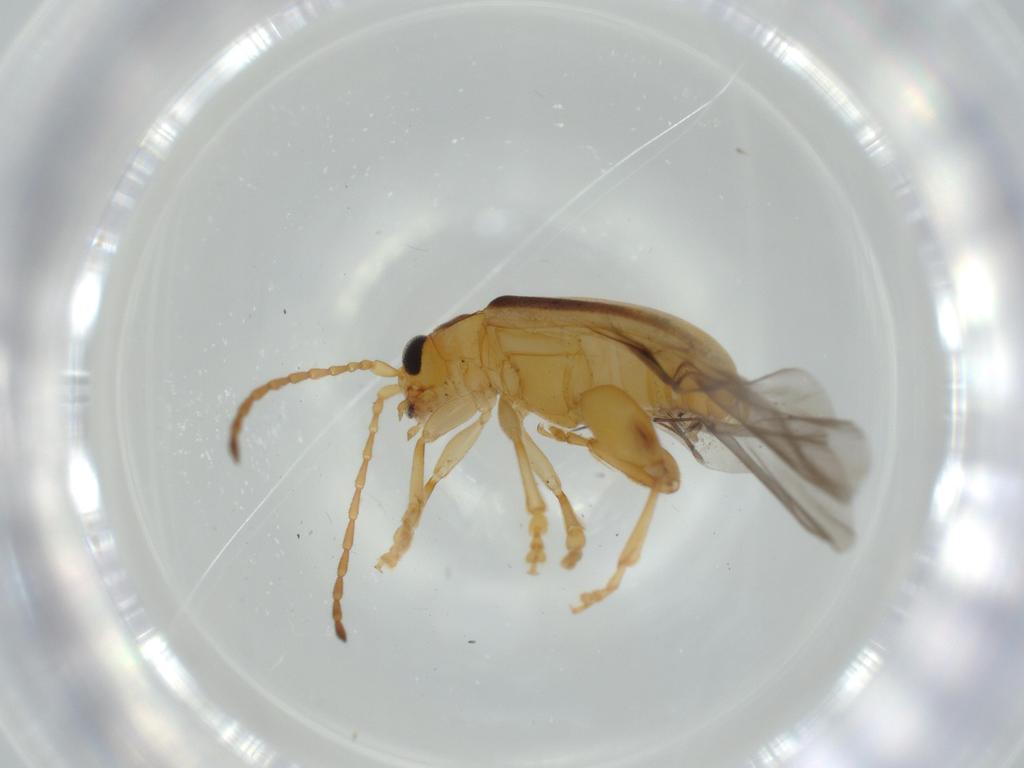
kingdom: Animalia
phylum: Arthropoda
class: Insecta
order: Coleoptera
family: Chrysomelidae
